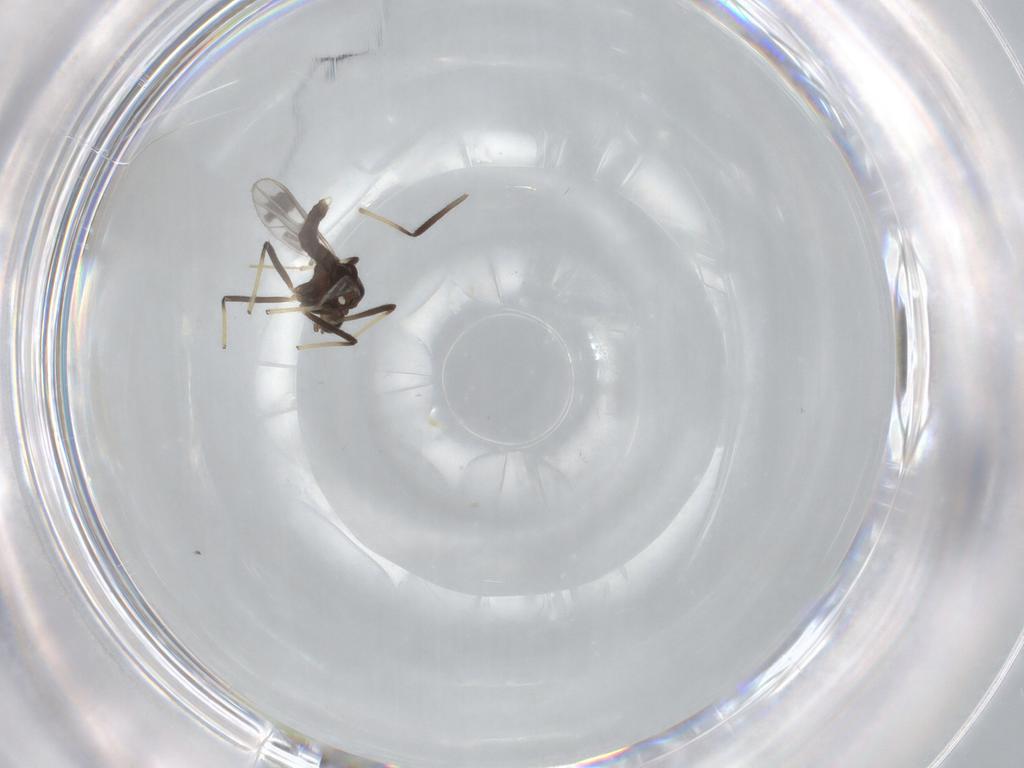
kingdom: Animalia
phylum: Arthropoda
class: Insecta
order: Diptera
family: Chironomidae
